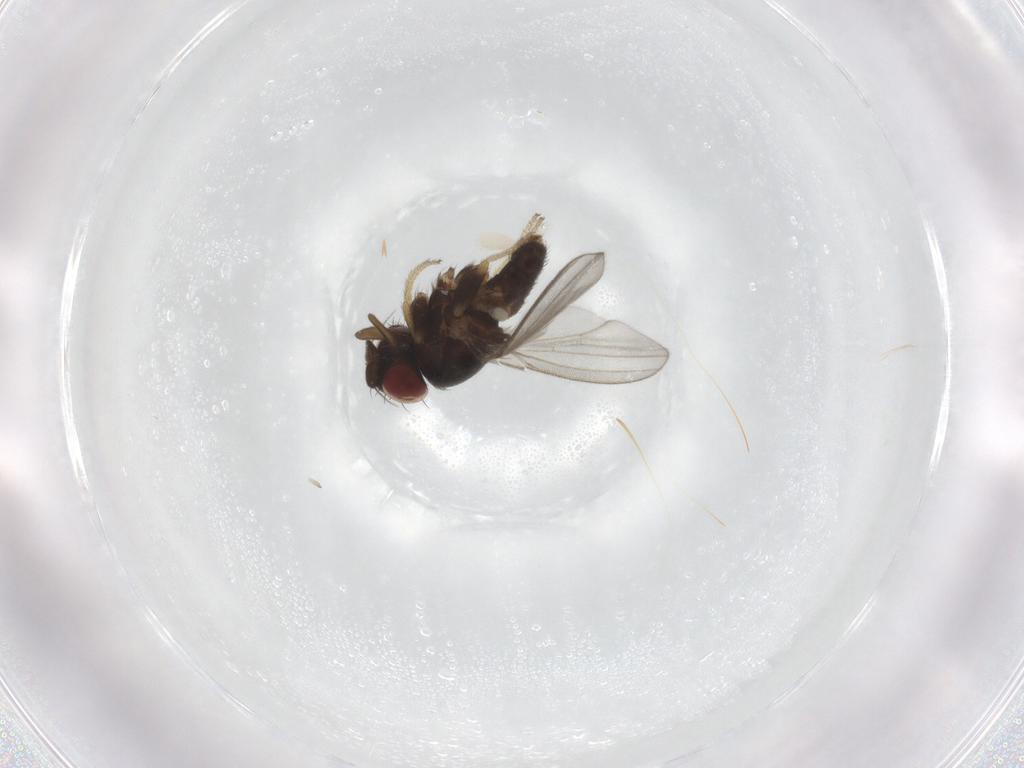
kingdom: Animalia
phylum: Arthropoda
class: Insecta
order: Diptera
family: Milichiidae
